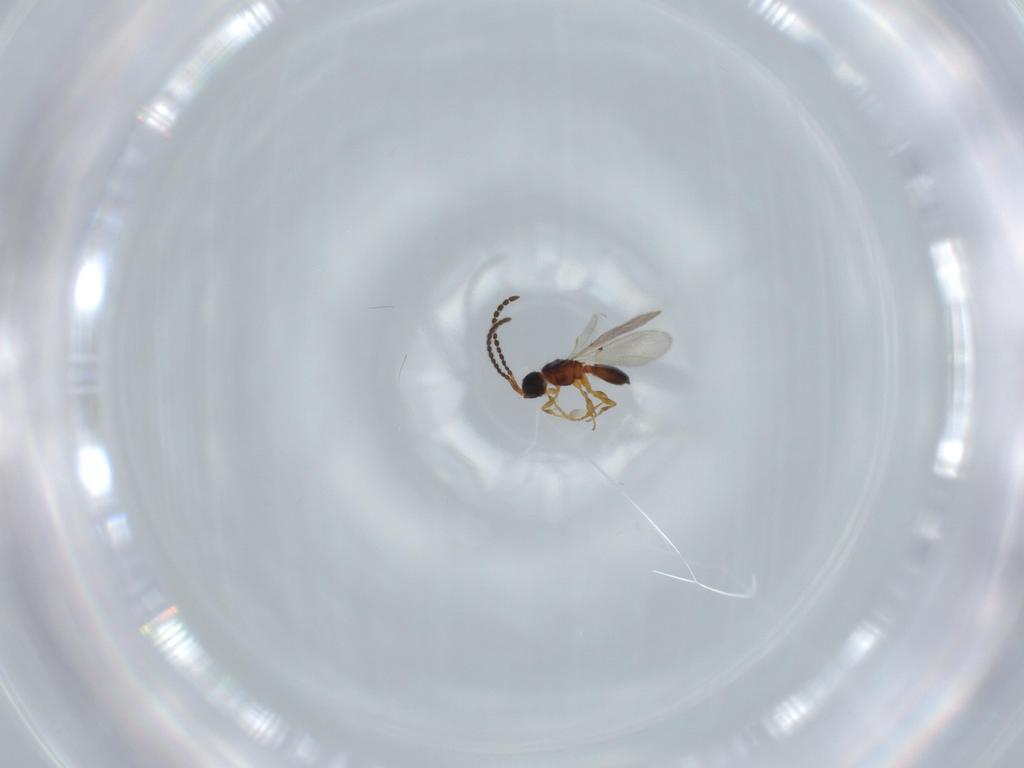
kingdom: Animalia
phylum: Arthropoda
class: Insecta
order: Hymenoptera
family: Diapriidae
